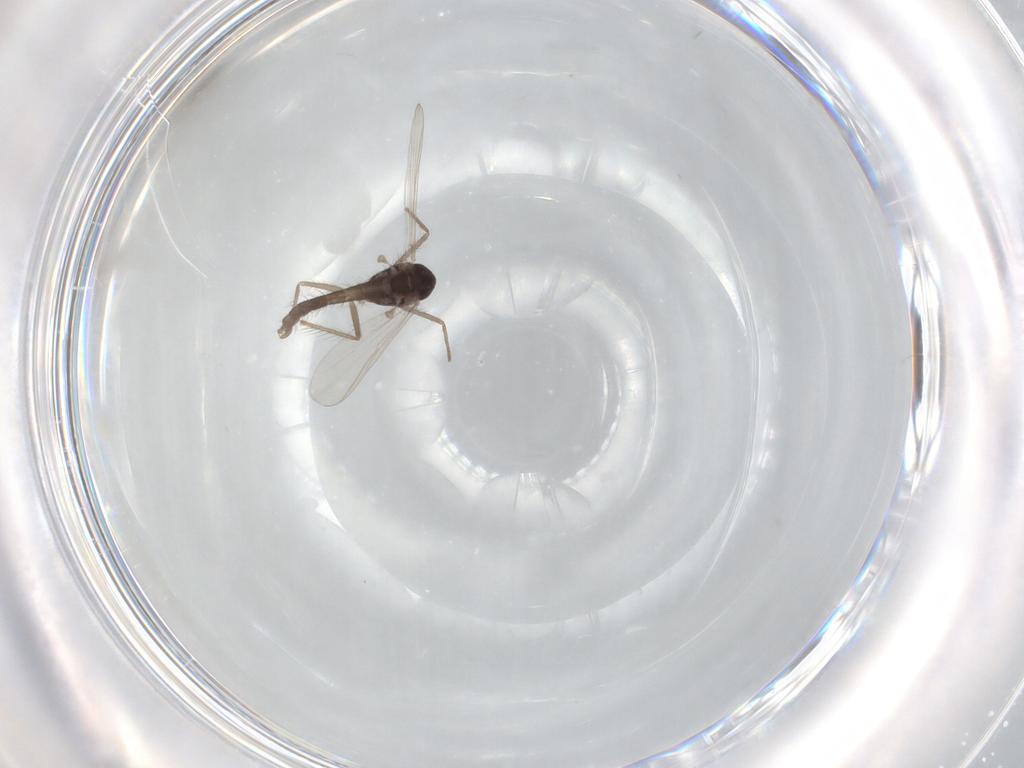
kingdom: Animalia
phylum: Arthropoda
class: Insecta
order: Diptera
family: Chironomidae
